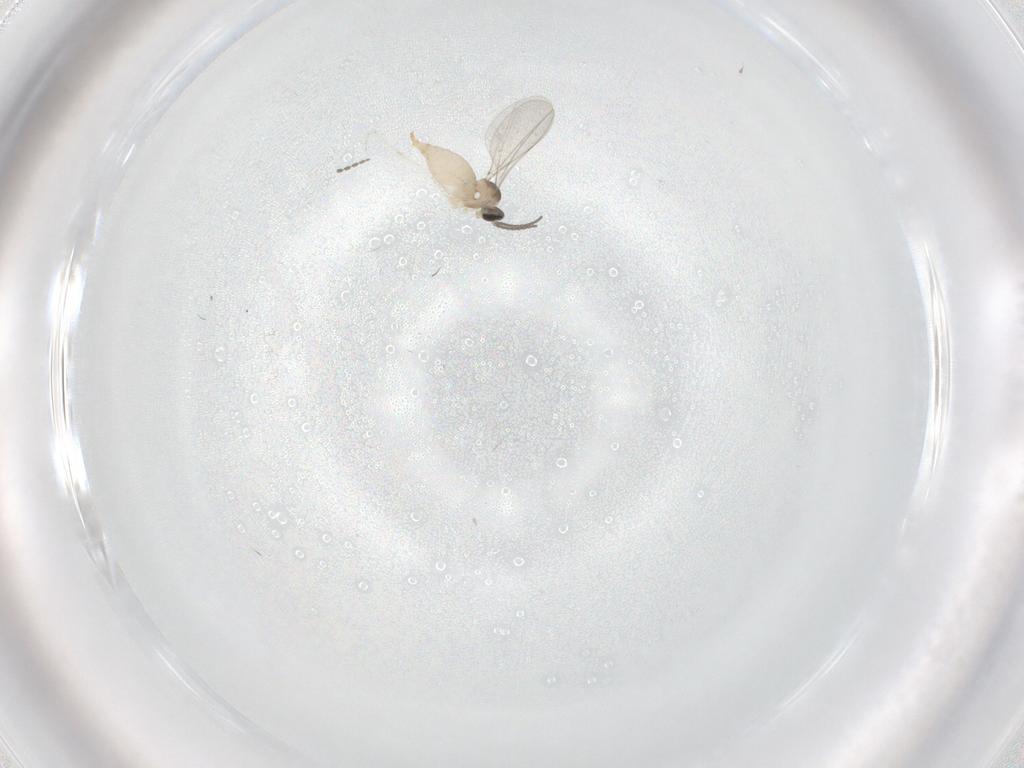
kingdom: Animalia
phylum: Arthropoda
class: Insecta
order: Diptera
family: Cecidomyiidae
